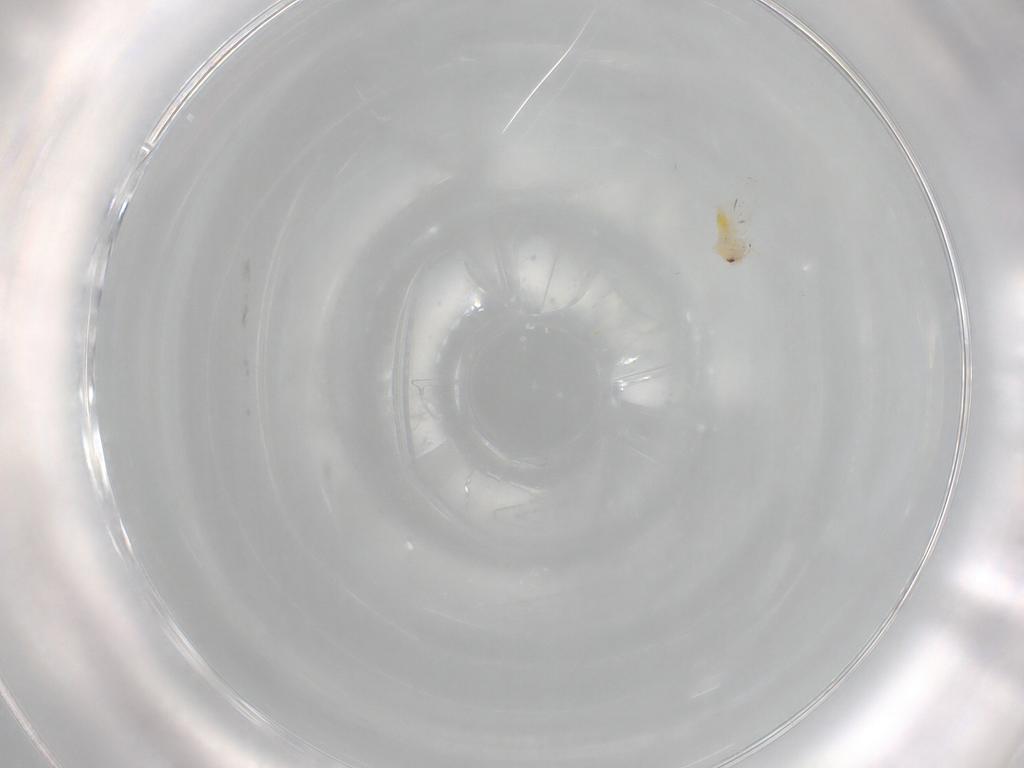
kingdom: Animalia
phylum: Arthropoda
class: Insecta
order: Hemiptera
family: Aleyrodidae
